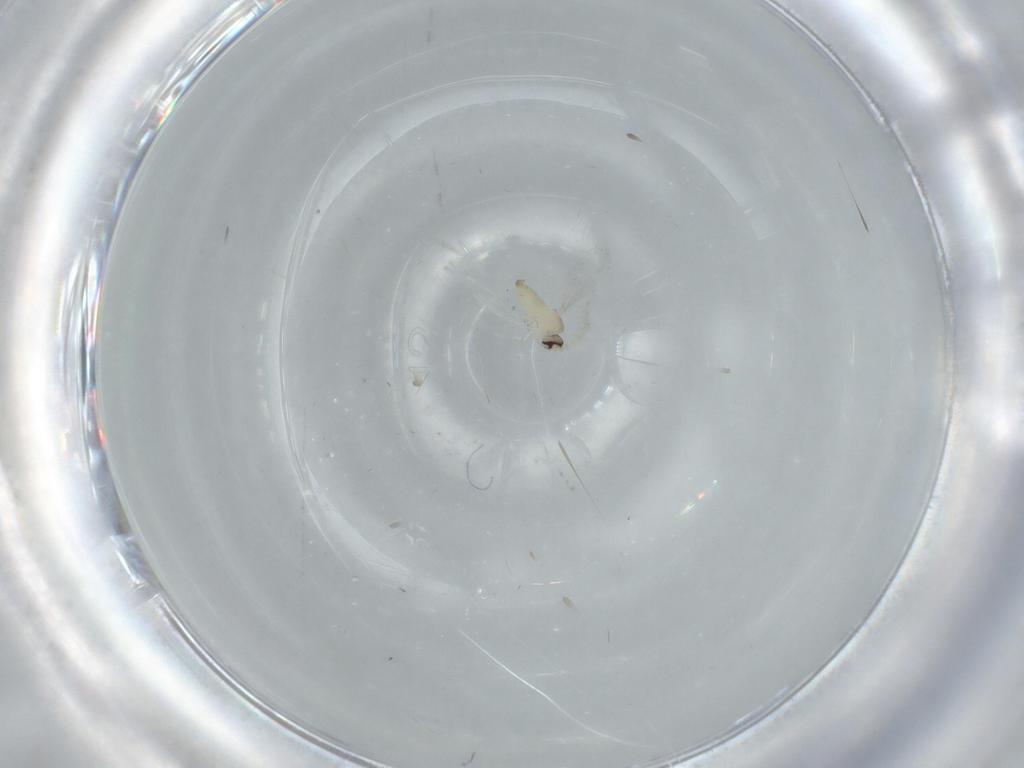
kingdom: Animalia
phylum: Arthropoda
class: Insecta
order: Diptera
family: Cecidomyiidae
